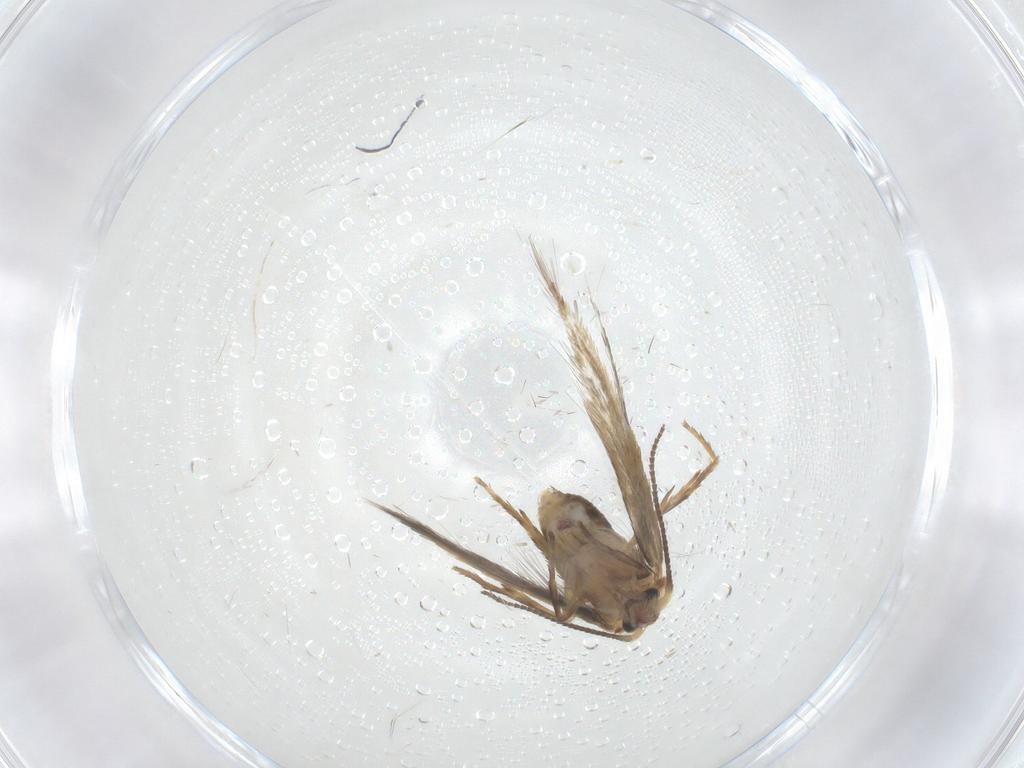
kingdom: Animalia
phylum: Arthropoda
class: Insecta
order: Lepidoptera
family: Nepticulidae
